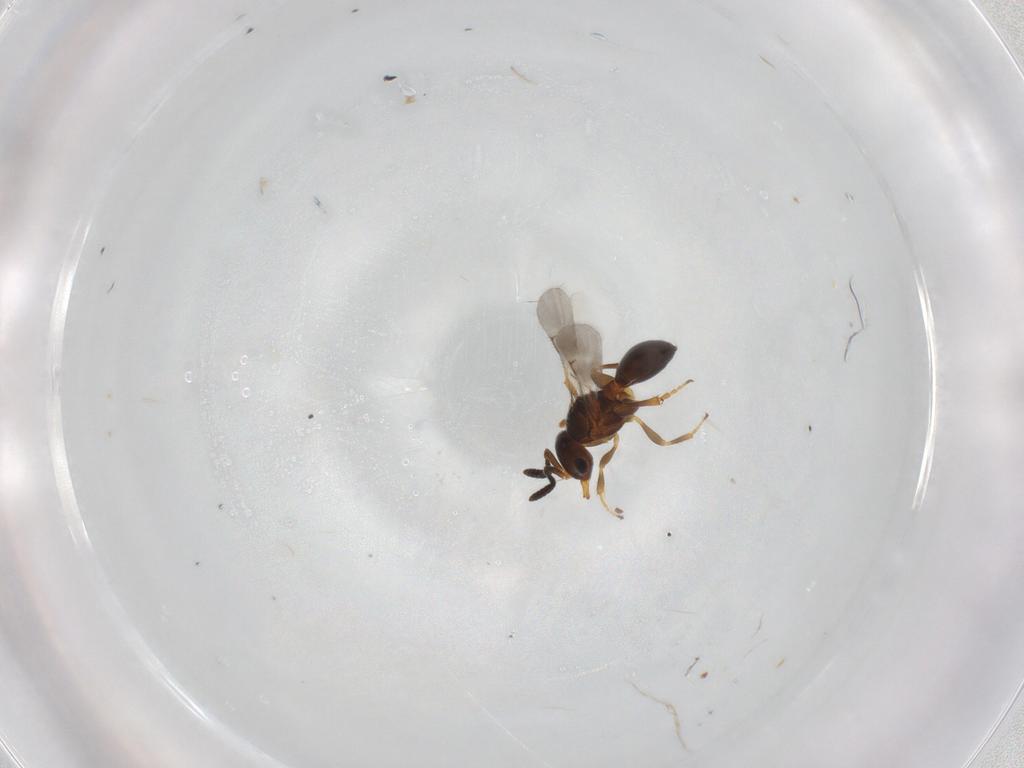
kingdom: Animalia
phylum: Arthropoda
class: Insecta
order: Hymenoptera
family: Scelionidae
